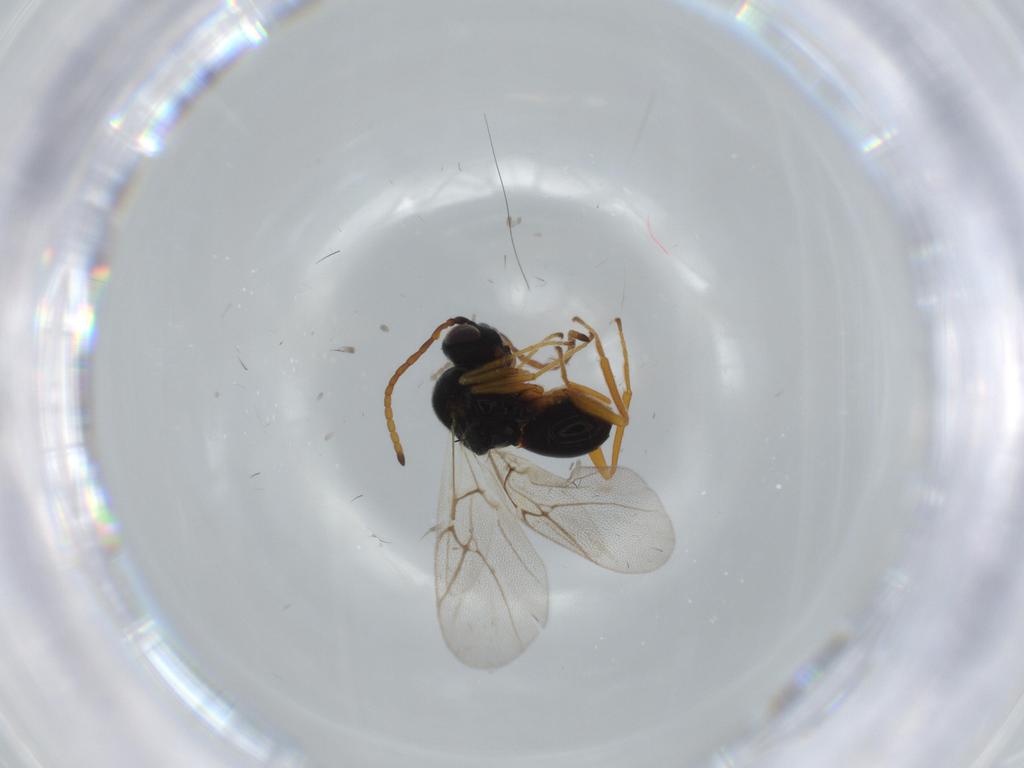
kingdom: Animalia
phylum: Arthropoda
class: Insecta
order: Hymenoptera
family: Cynipidae
